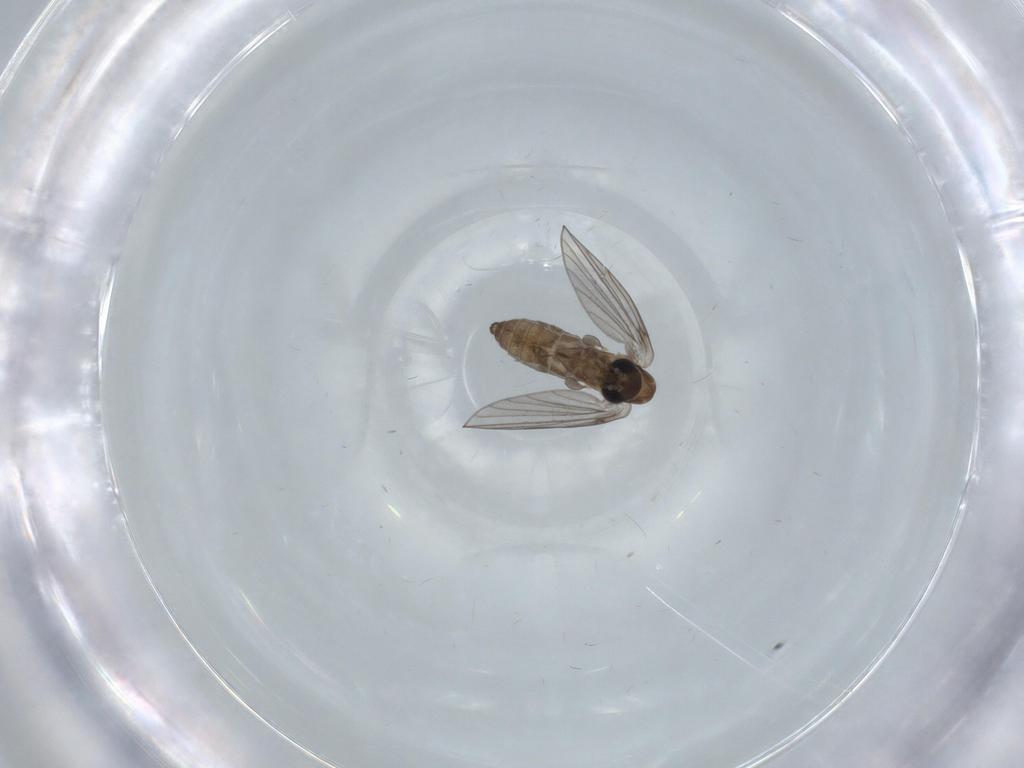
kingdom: Animalia
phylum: Arthropoda
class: Insecta
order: Diptera
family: Psychodidae
